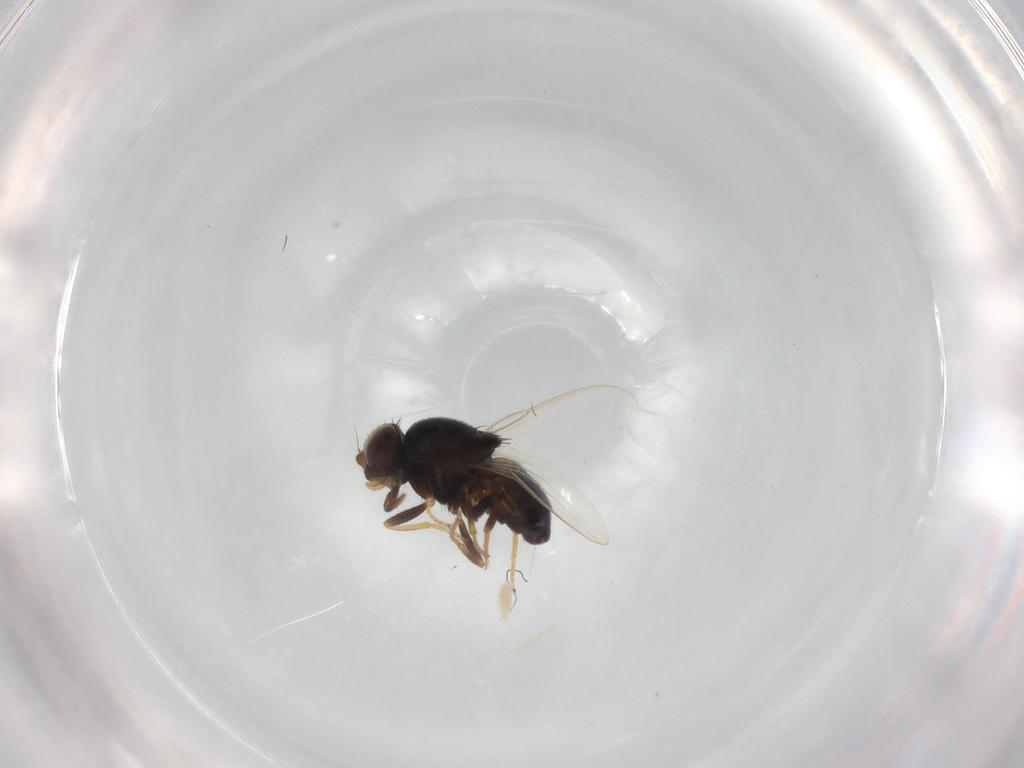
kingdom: Animalia
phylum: Arthropoda
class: Insecta
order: Diptera
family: Chloropidae
